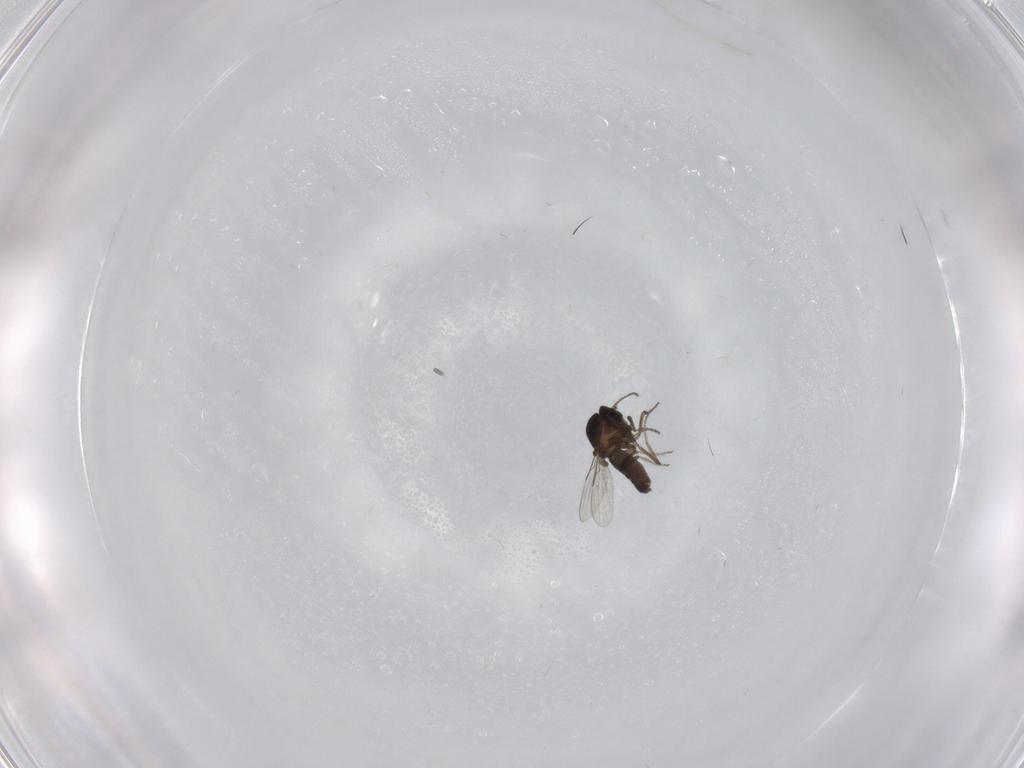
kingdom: Animalia
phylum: Arthropoda
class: Insecta
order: Diptera
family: Ceratopogonidae
